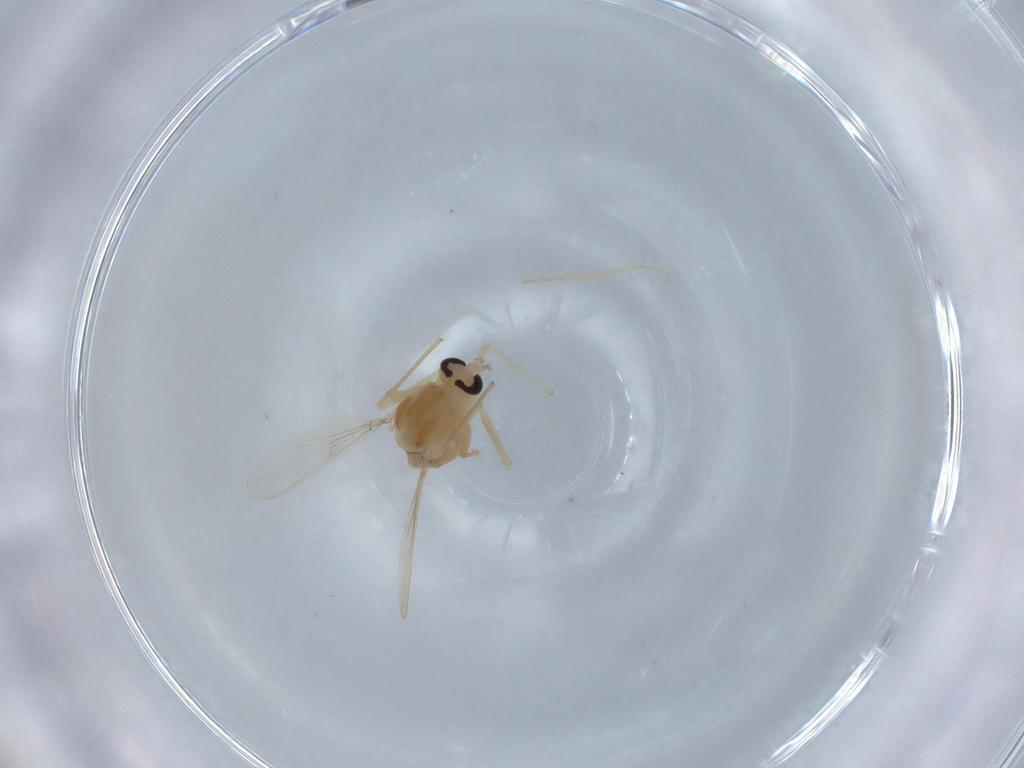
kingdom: Animalia
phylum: Arthropoda
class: Insecta
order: Diptera
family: Chironomidae
